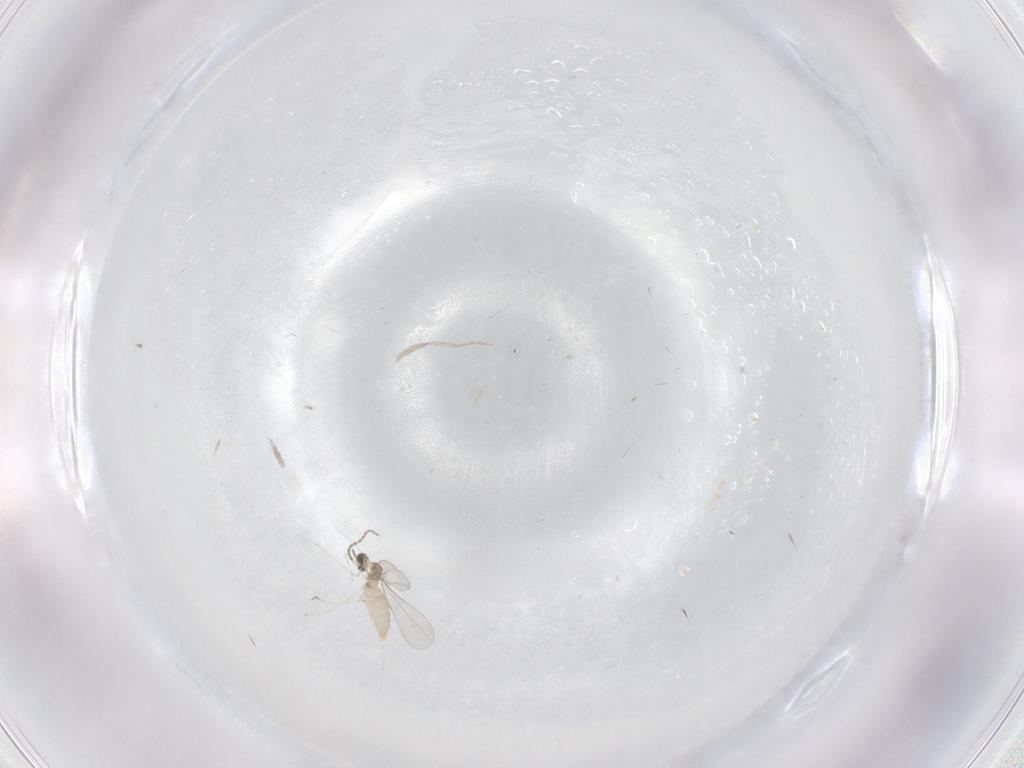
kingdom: Animalia
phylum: Arthropoda
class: Insecta
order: Diptera
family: Cecidomyiidae
